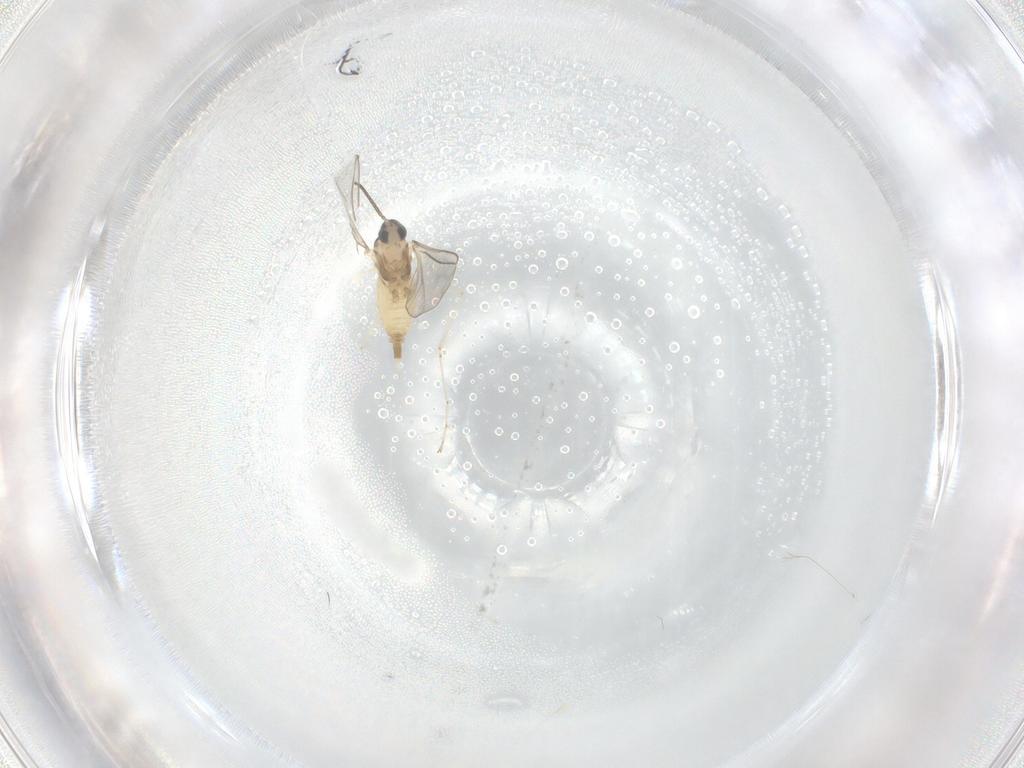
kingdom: Animalia
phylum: Arthropoda
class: Insecta
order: Diptera
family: Cecidomyiidae
